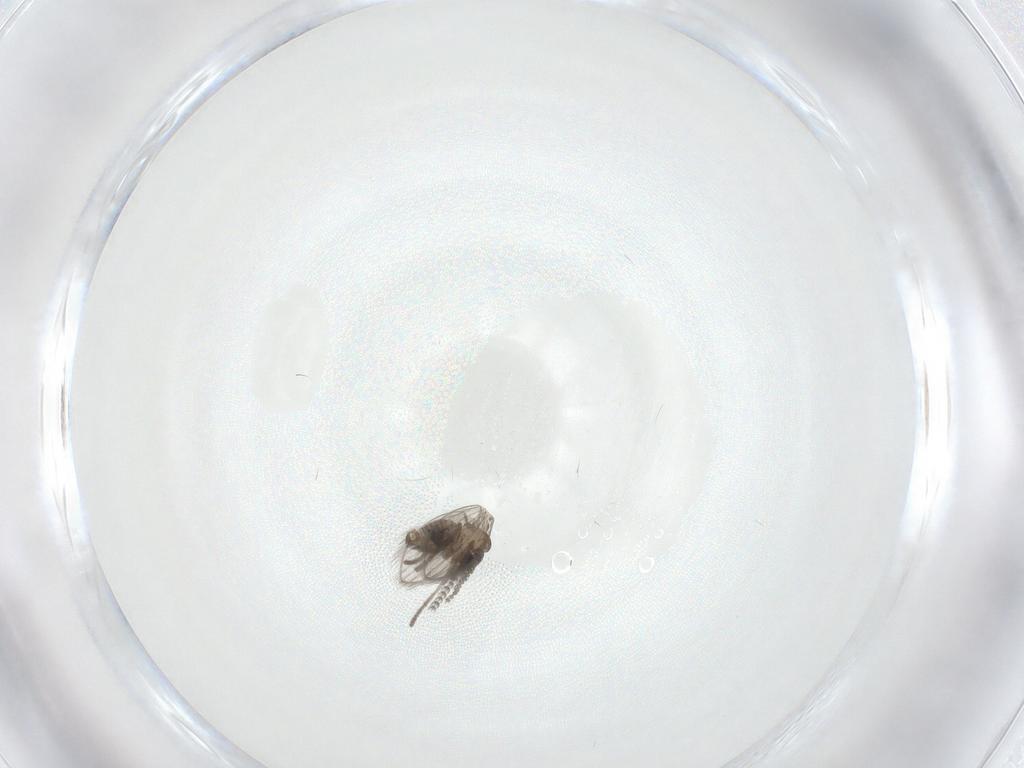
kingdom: Animalia
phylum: Arthropoda
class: Insecta
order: Diptera
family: Psychodidae
